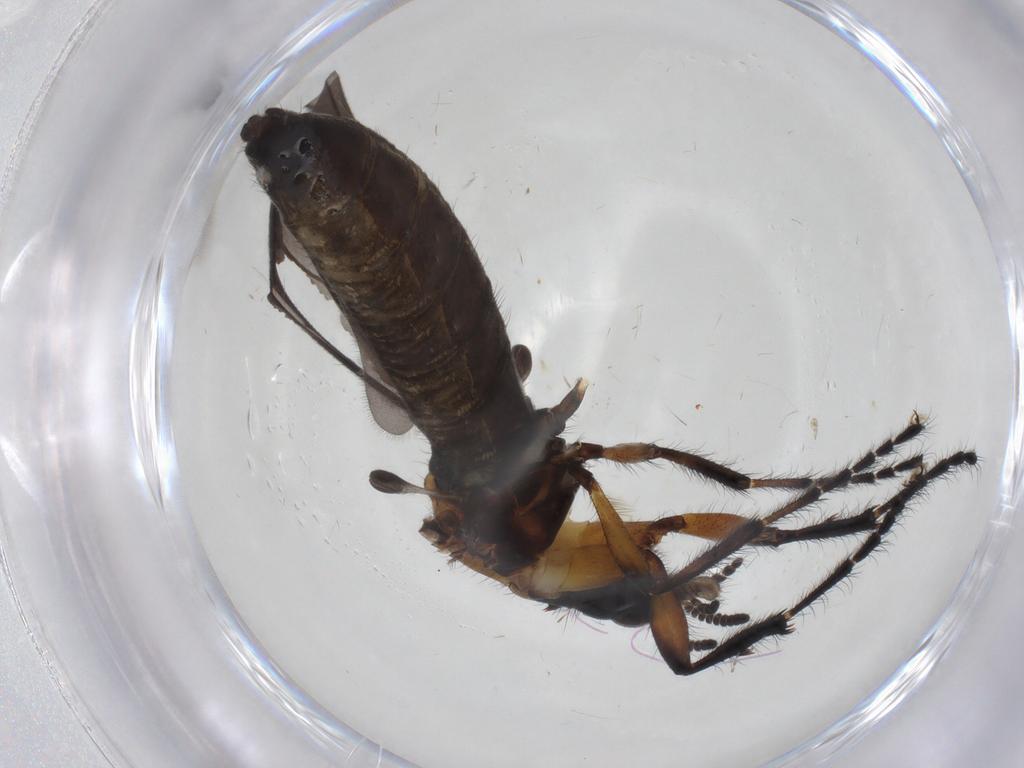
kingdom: Animalia
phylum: Arthropoda
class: Insecta
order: Diptera
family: Bibionidae
